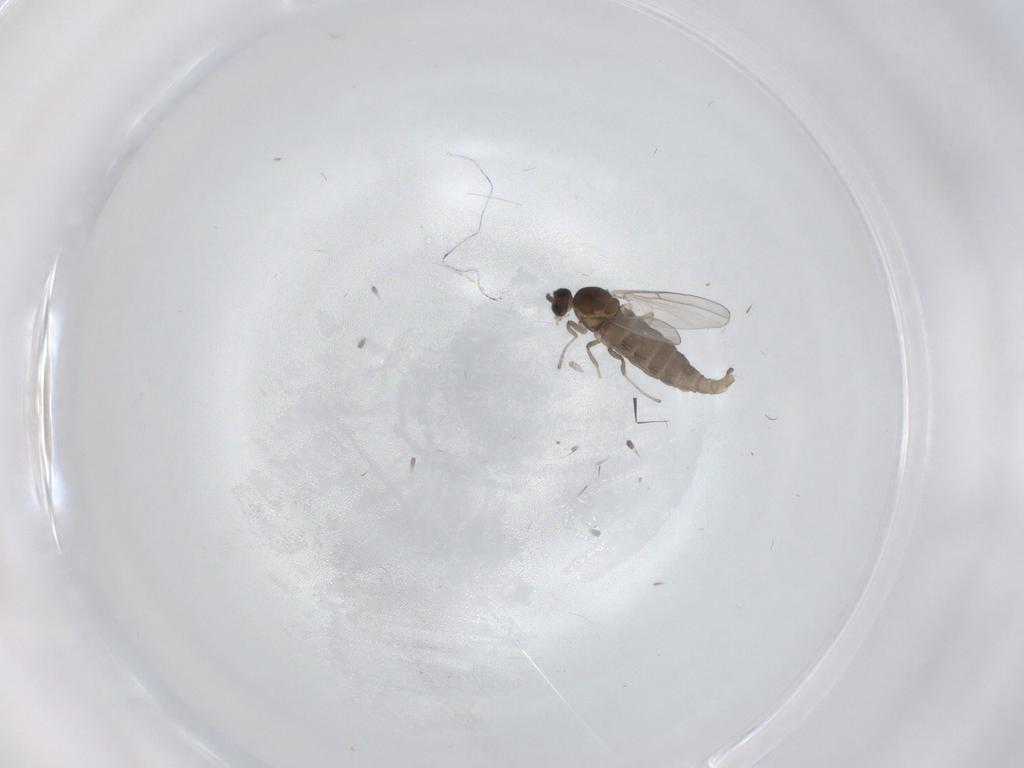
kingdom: Animalia
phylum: Arthropoda
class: Insecta
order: Diptera
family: Cecidomyiidae
